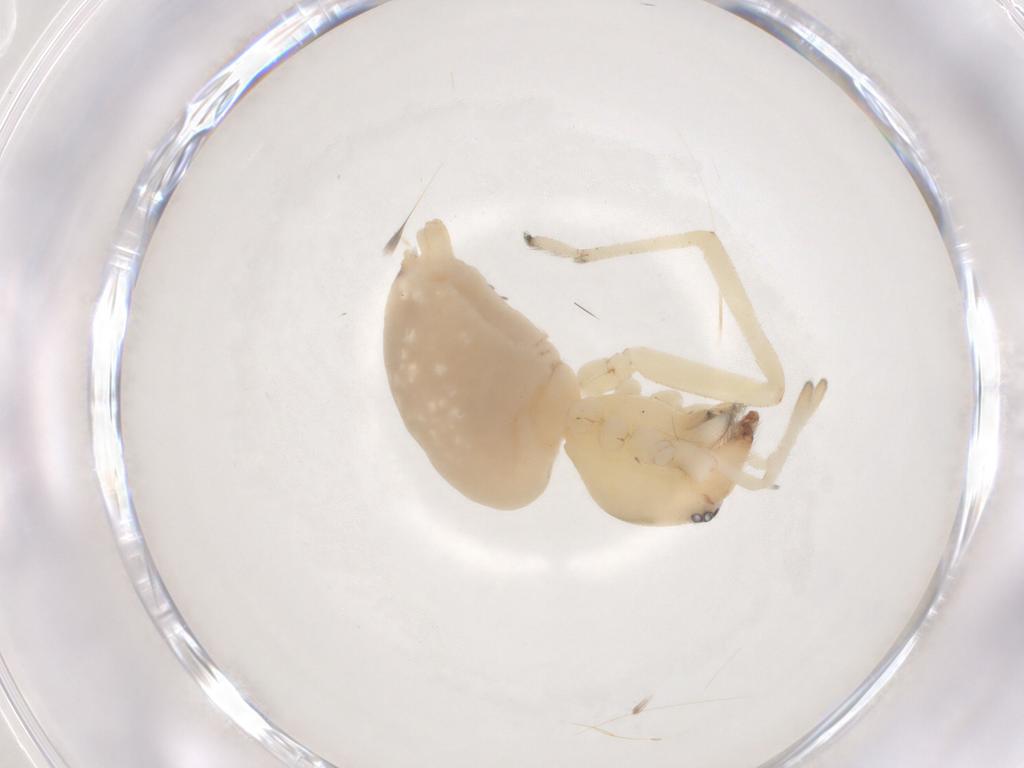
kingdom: Animalia
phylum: Arthropoda
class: Arachnida
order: Araneae
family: Cheiracanthiidae
